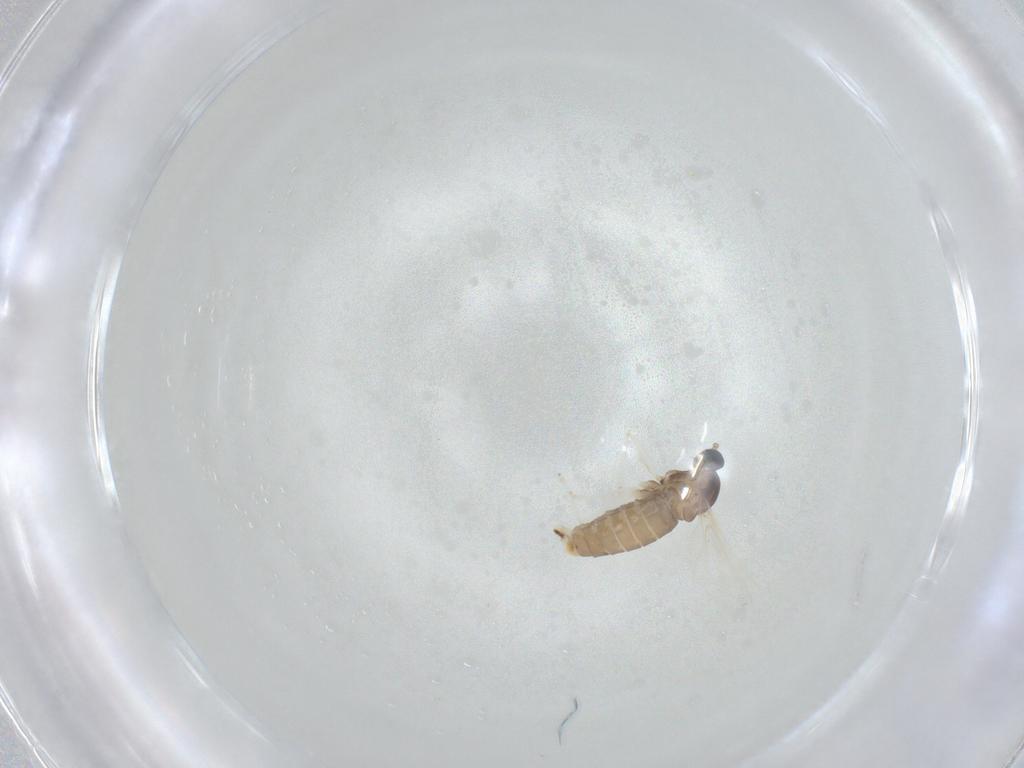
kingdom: Animalia
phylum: Arthropoda
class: Insecta
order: Diptera
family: Cecidomyiidae
